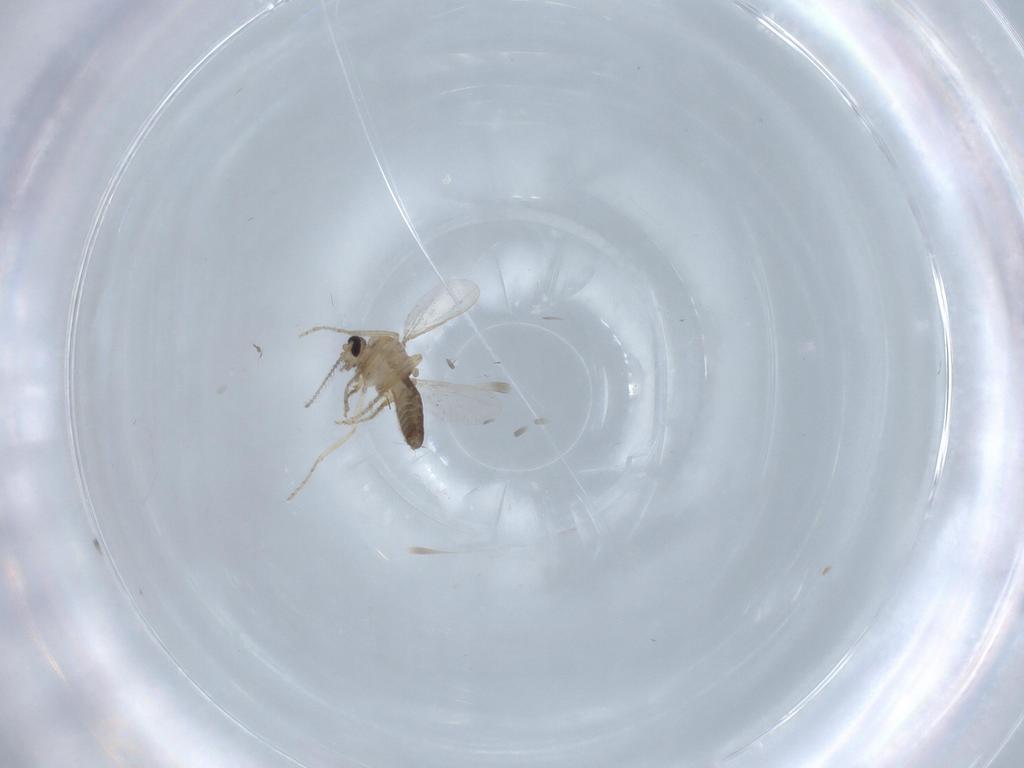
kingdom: Animalia
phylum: Arthropoda
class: Insecta
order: Diptera
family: Ceratopogonidae
